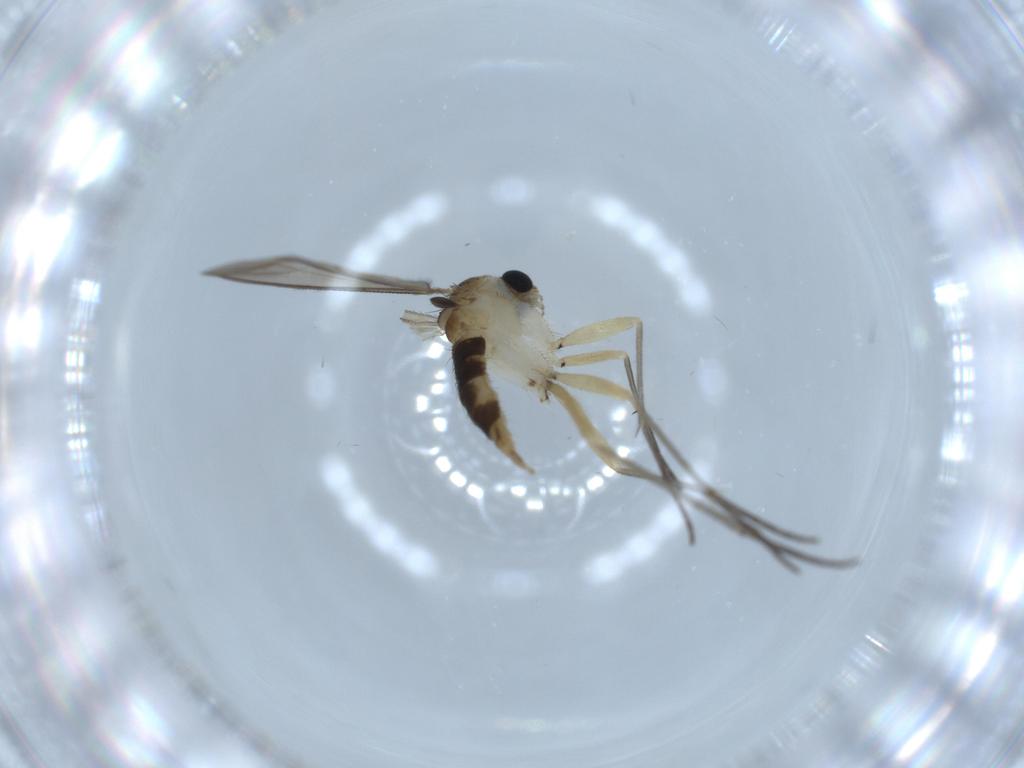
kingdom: Animalia
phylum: Arthropoda
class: Insecta
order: Diptera
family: Sciaridae
